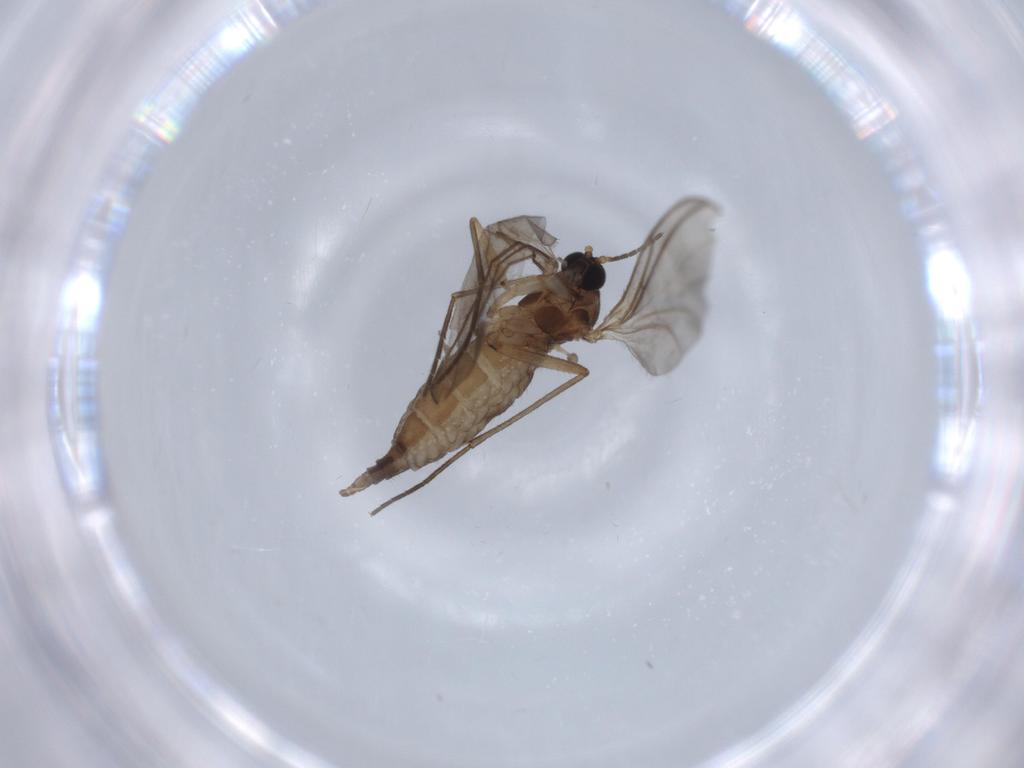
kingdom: Animalia
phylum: Arthropoda
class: Insecta
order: Diptera
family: Sciaridae
